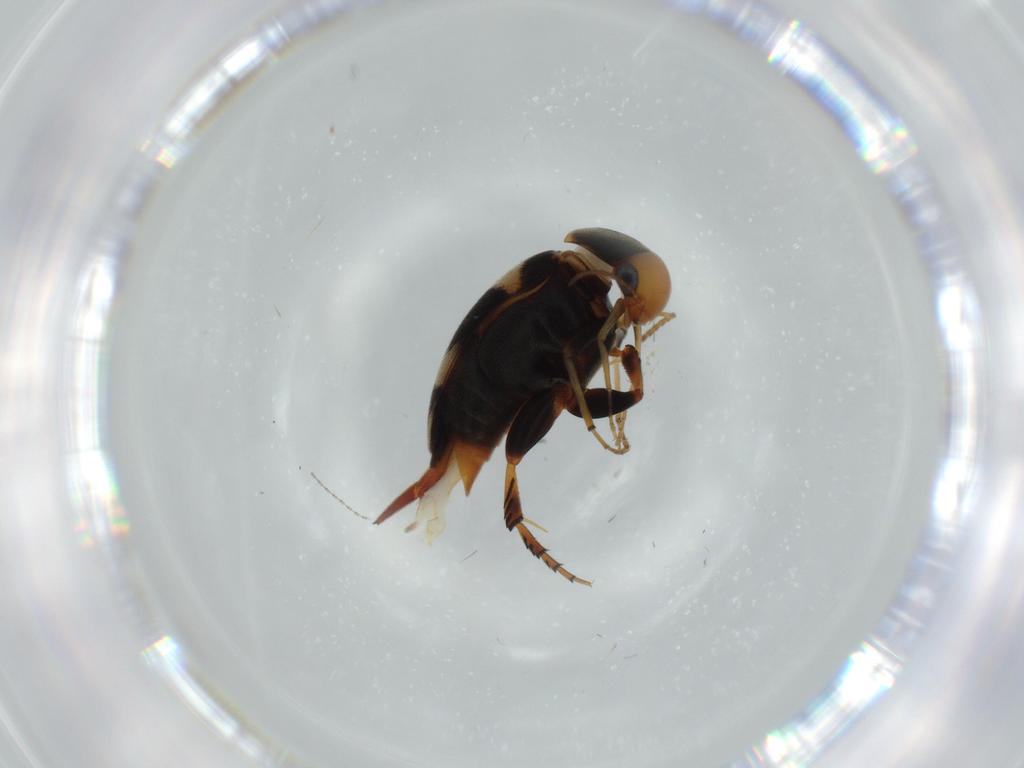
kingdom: Animalia
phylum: Arthropoda
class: Insecta
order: Coleoptera
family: Mordellidae
